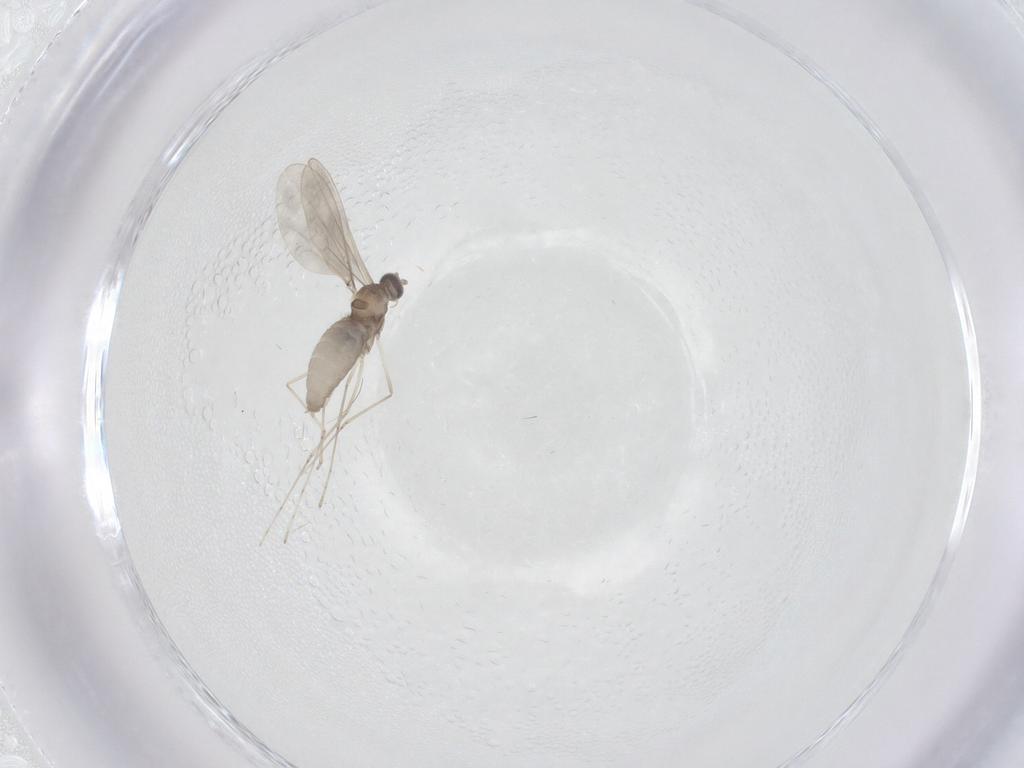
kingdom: Animalia
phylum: Arthropoda
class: Insecta
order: Diptera
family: Cecidomyiidae
